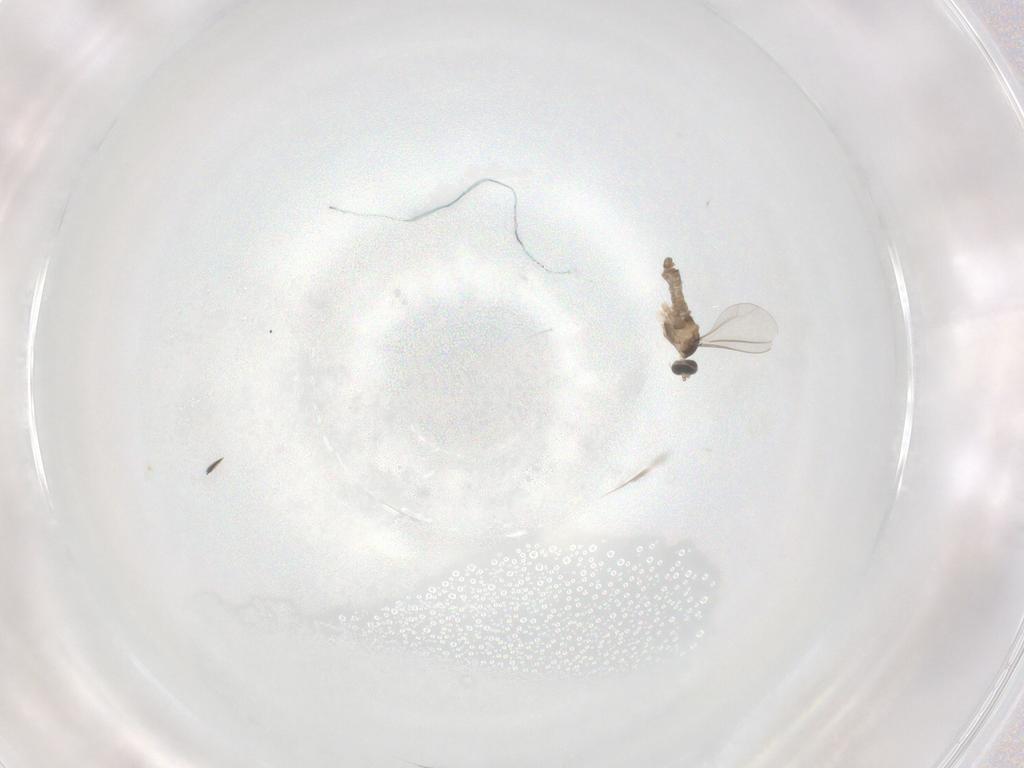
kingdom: Animalia
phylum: Arthropoda
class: Insecta
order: Diptera
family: Cecidomyiidae
